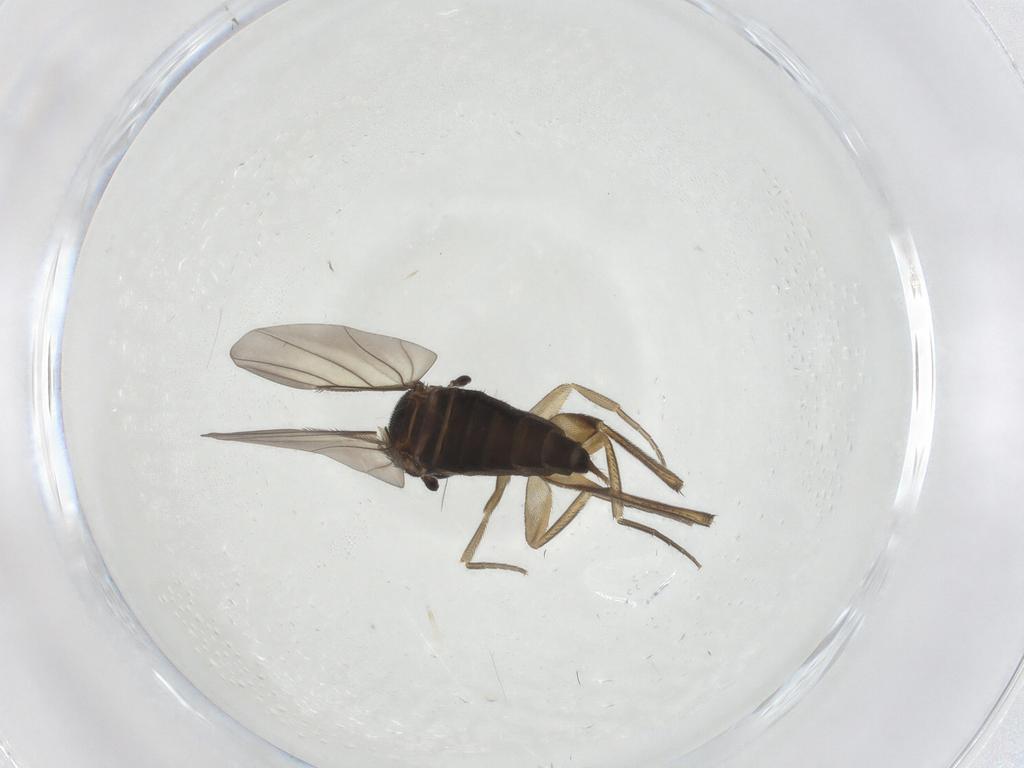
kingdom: Animalia
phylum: Arthropoda
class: Insecta
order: Diptera
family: Phoridae
